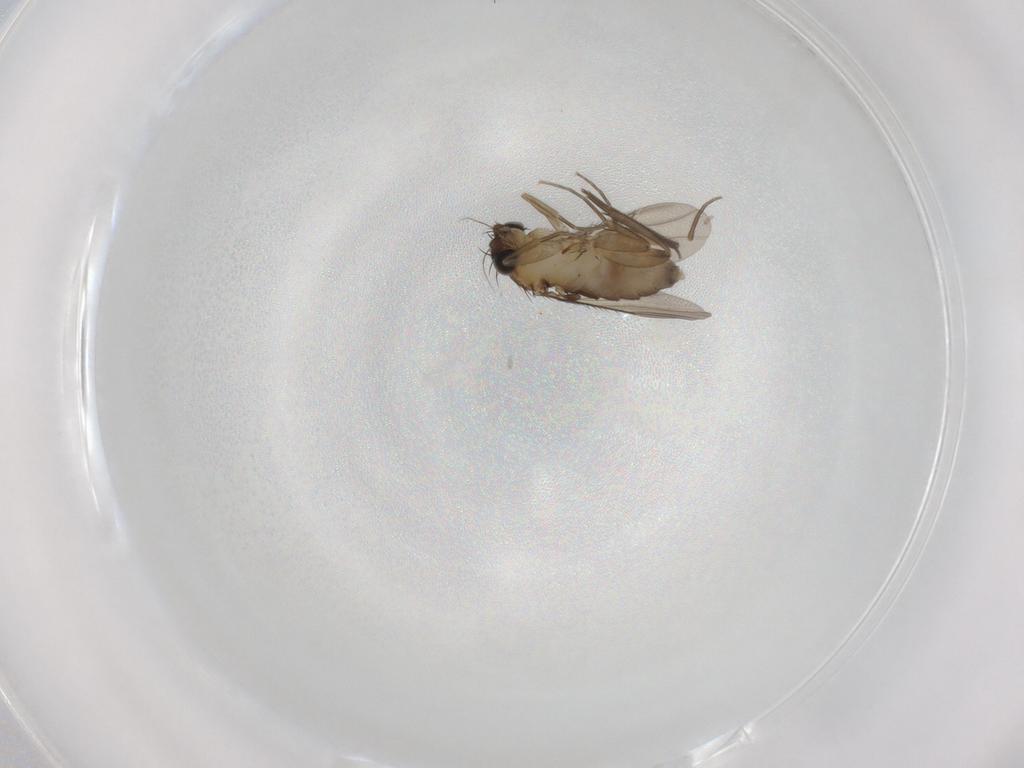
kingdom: Animalia
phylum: Arthropoda
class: Insecta
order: Diptera
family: Phoridae
